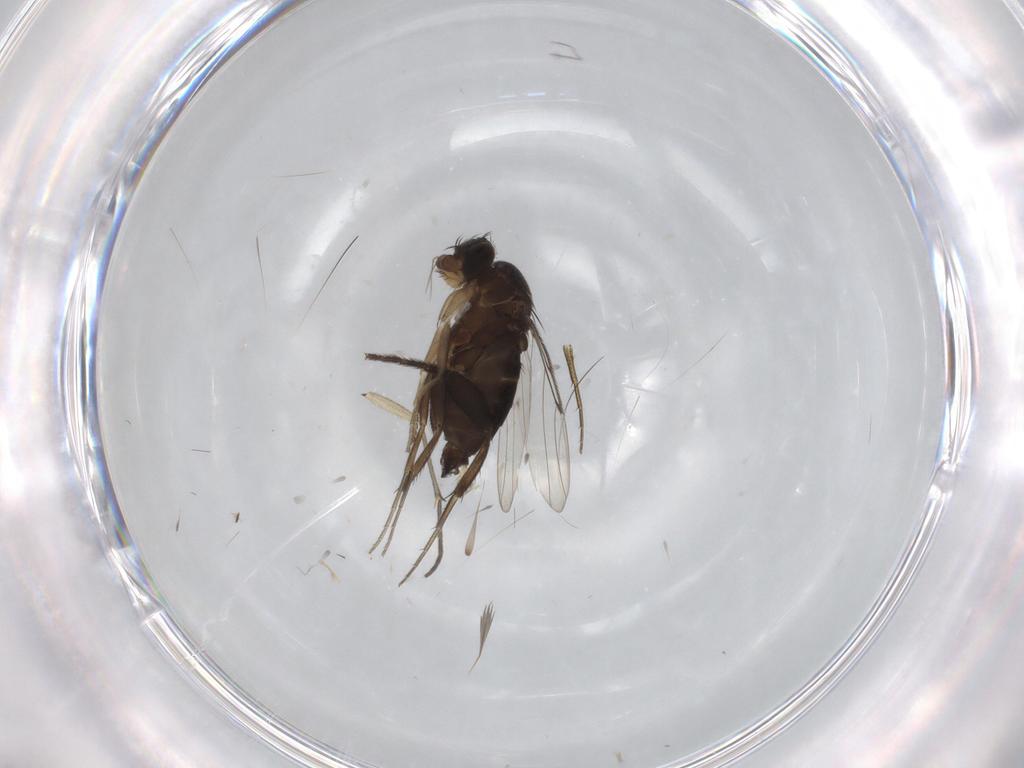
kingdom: Animalia
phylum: Arthropoda
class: Insecta
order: Diptera
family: Sciaridae
